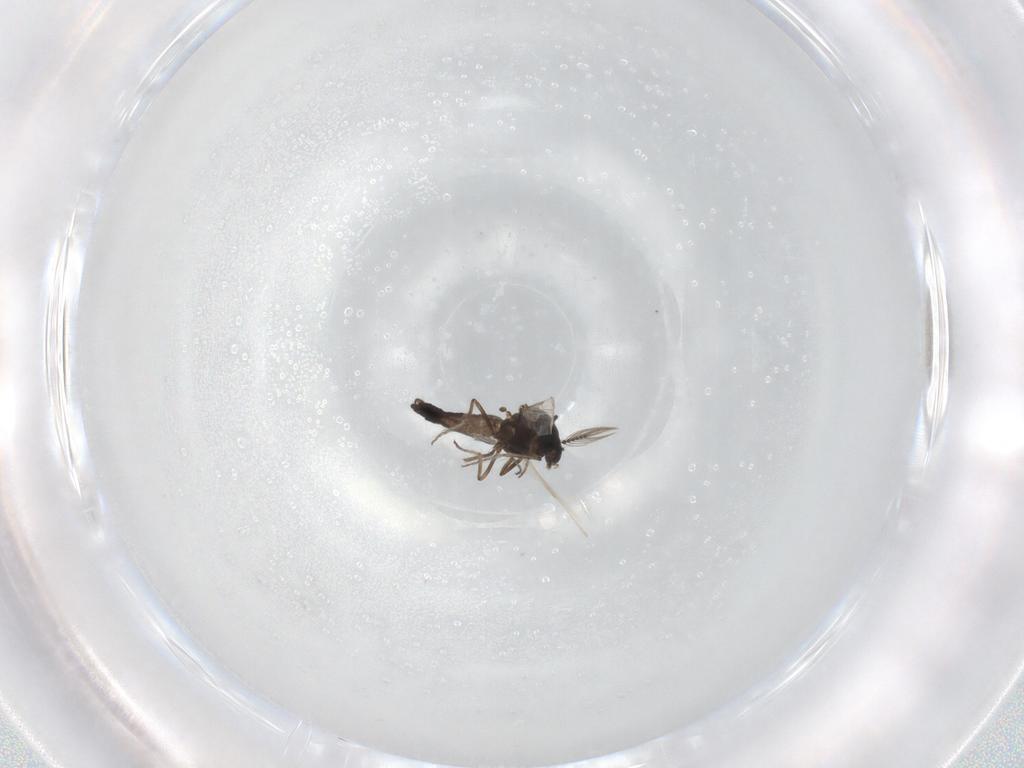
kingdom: Animalia
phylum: Arthropoda
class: Insecta
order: Diptera
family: Ceratopogonidae
